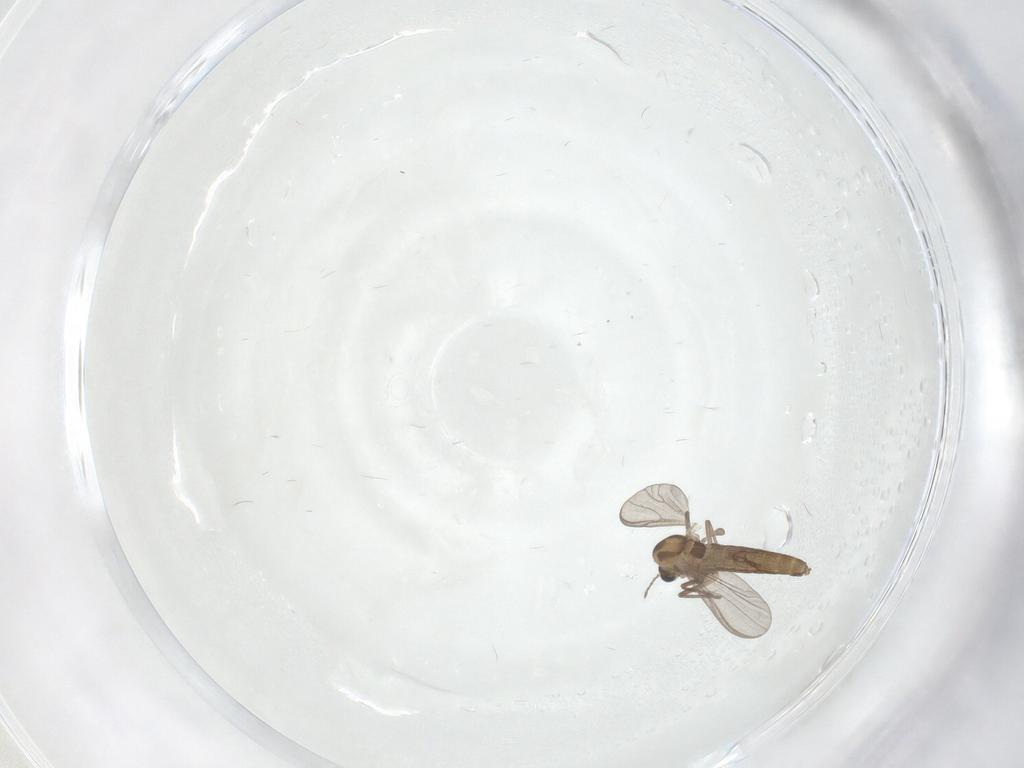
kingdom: Animalia
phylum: Arthropoda
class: Insecta
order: Diptera
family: Chironomidae
